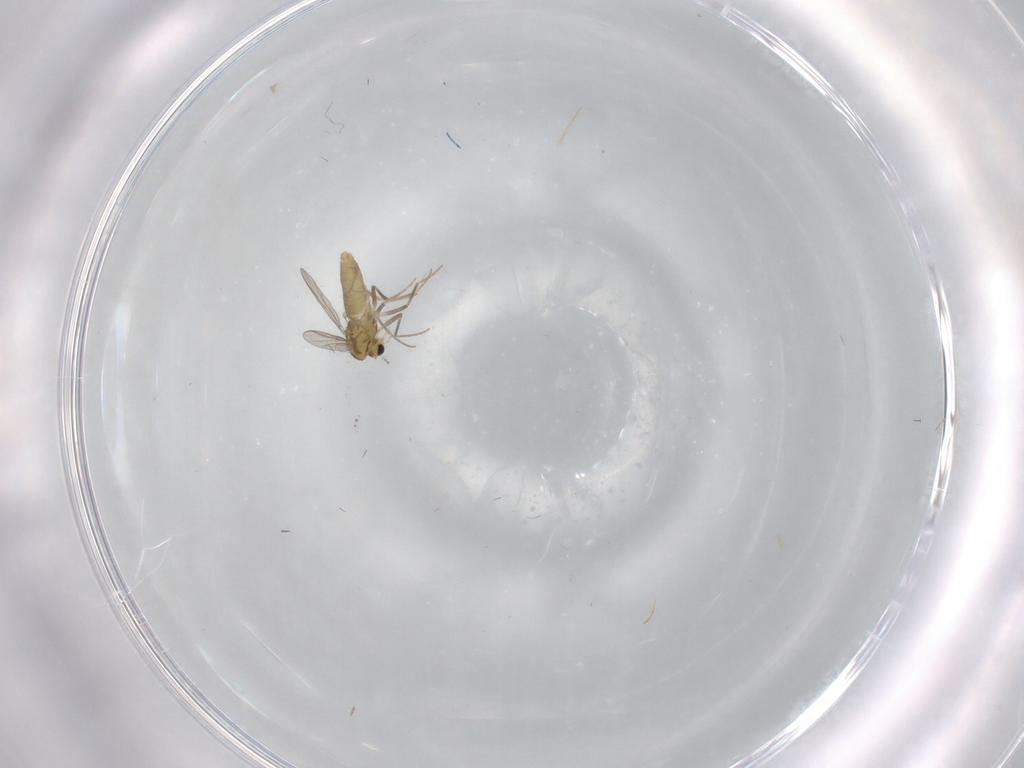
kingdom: Animalia
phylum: Arthropoda
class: Insecta
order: Diptera
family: Chironomidae
